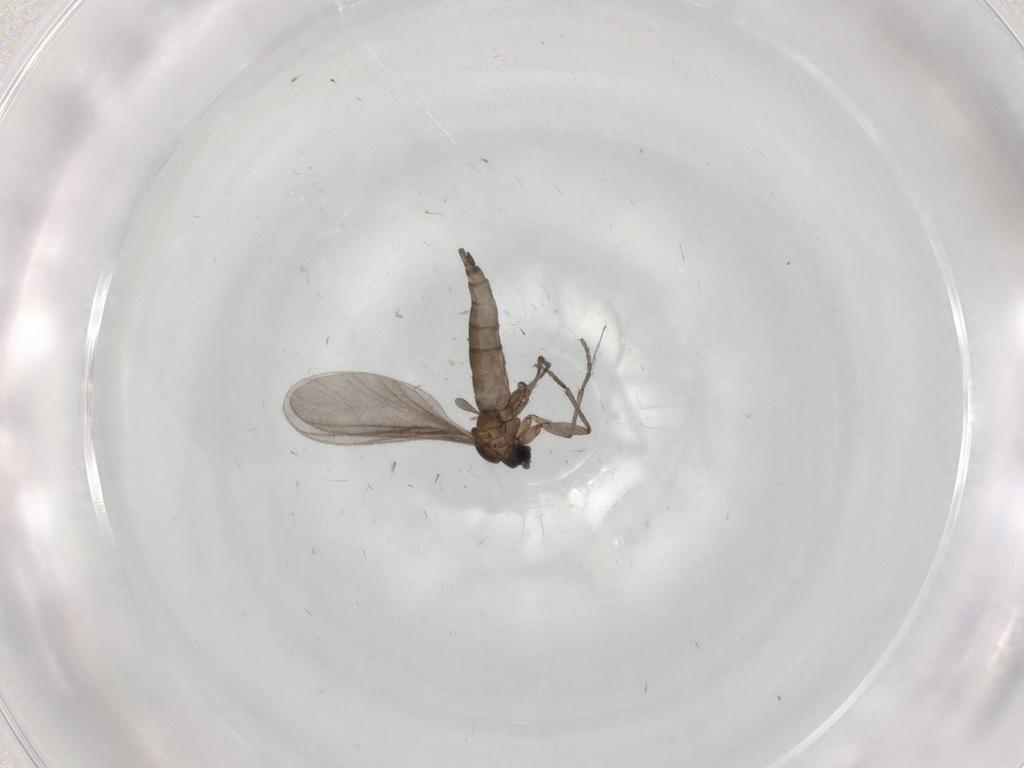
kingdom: Animalia
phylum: Arthropoda
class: Insecta
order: Diptera
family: Sciaridae
